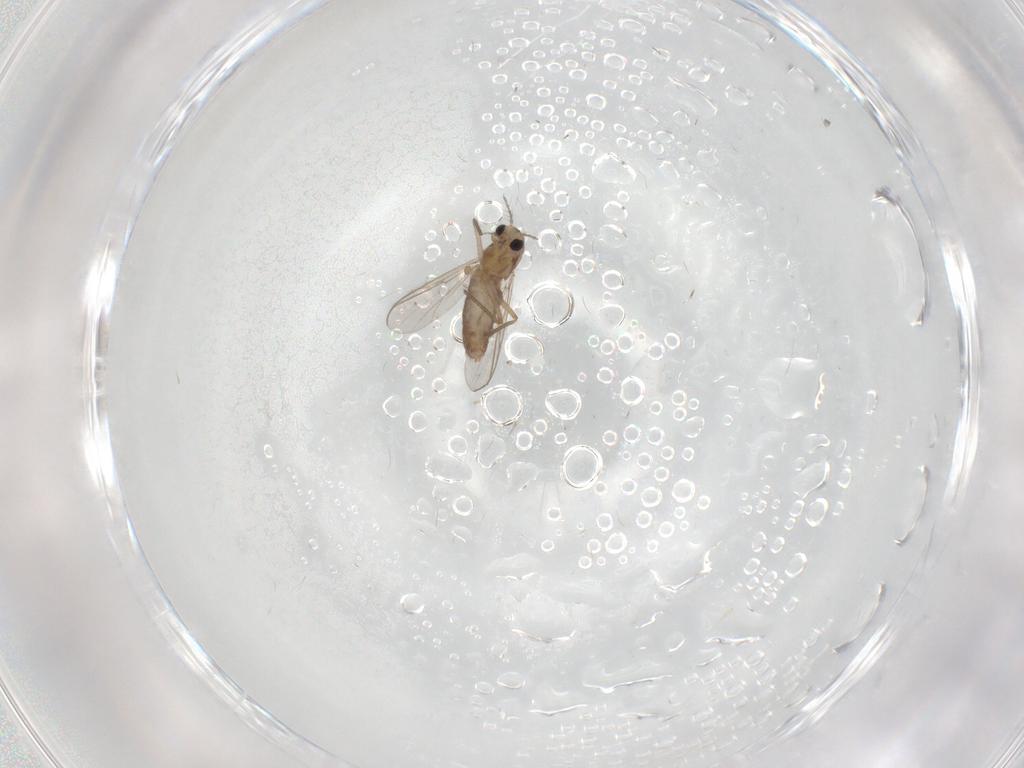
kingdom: Animalia
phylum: Arthropoda
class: Insecta
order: Diptera
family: Chironomidae
